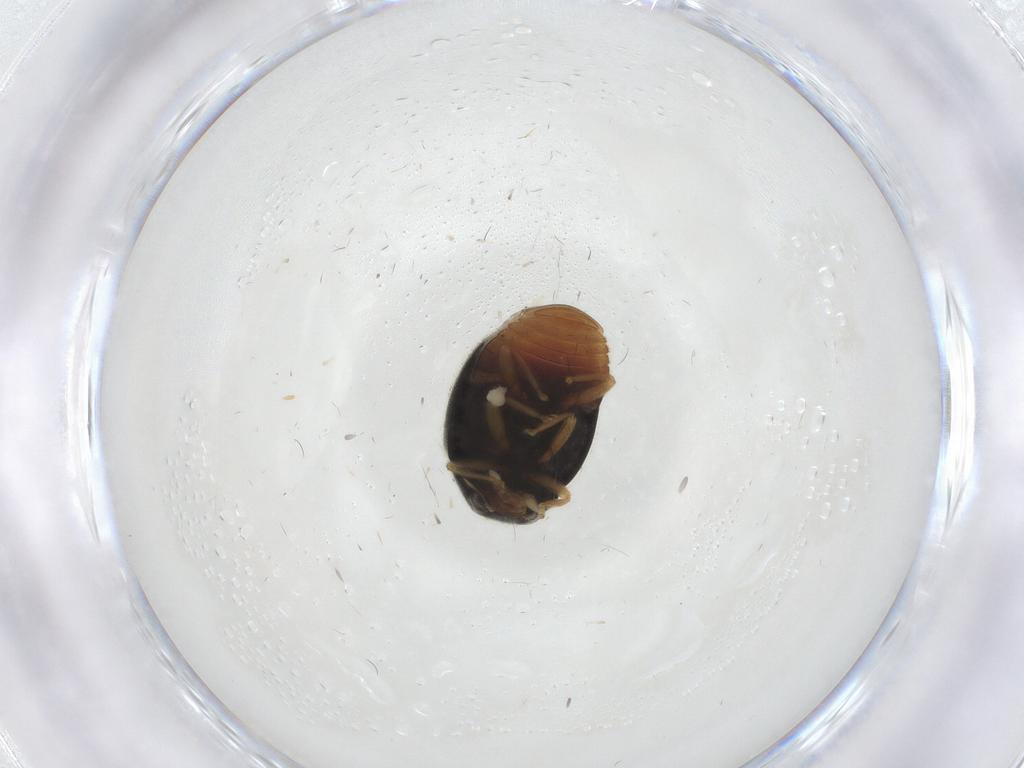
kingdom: Animalia
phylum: Arthropoda
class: Insecta
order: Coleoptera
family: Coccinellidae
